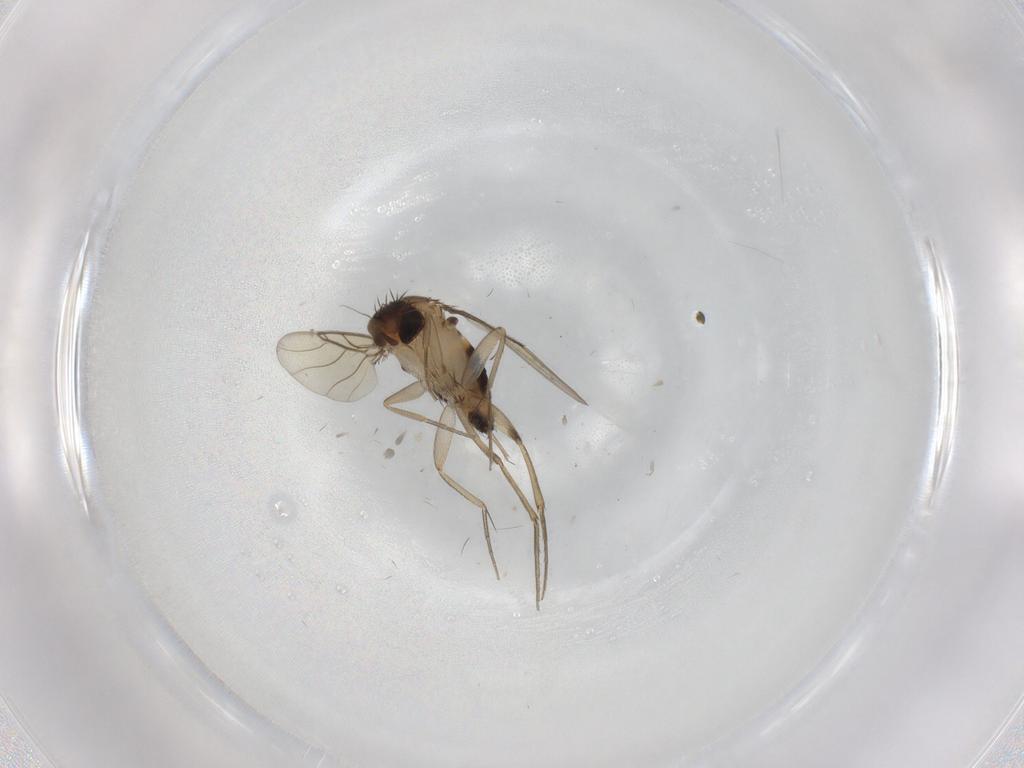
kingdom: Animalia
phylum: Arthropoda
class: Insecta
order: Diptera
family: Phoridae
